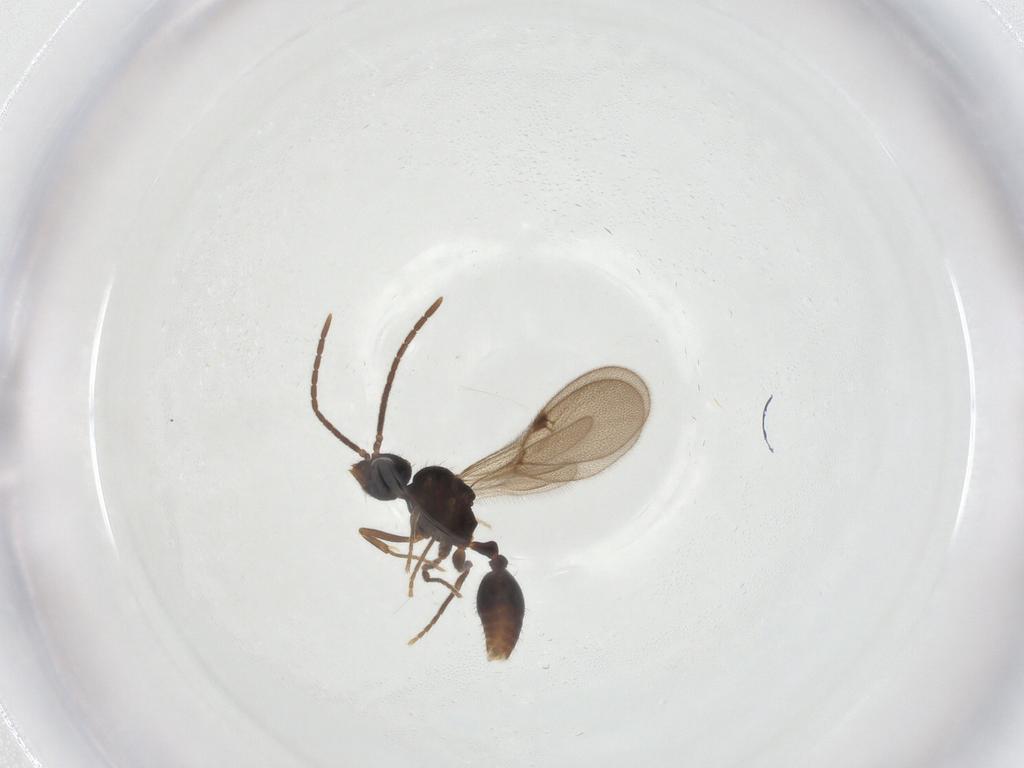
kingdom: Animalia
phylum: Arthropoda
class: Insecta
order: Hymenoptera
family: Formicidae
